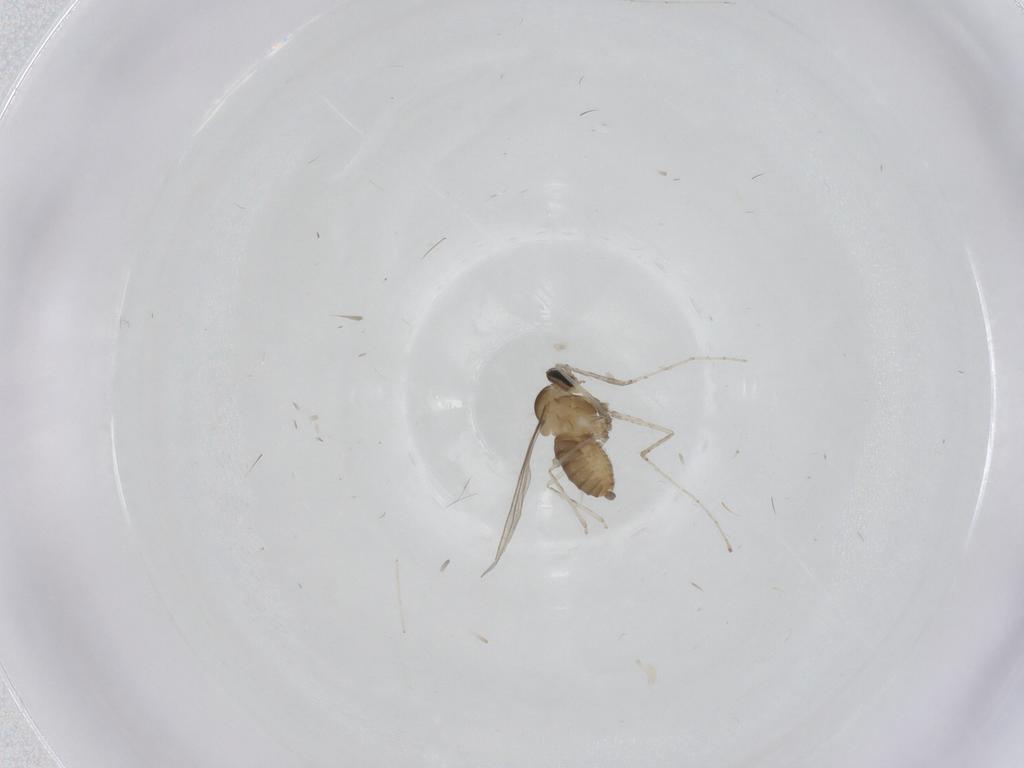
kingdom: Animalia
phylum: Arthropoda
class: Insecta
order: Diptera
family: Cecidomyiidae
